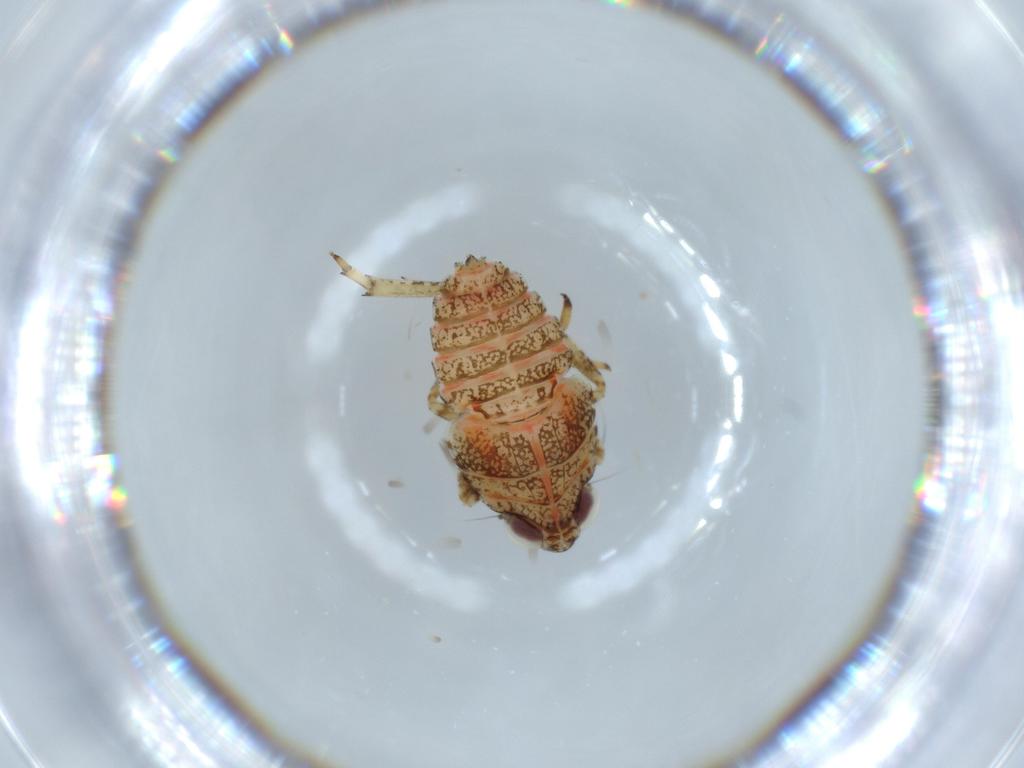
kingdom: Animalia
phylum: Arthropoda
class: Insecta
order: Hemiptera
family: Issidae
